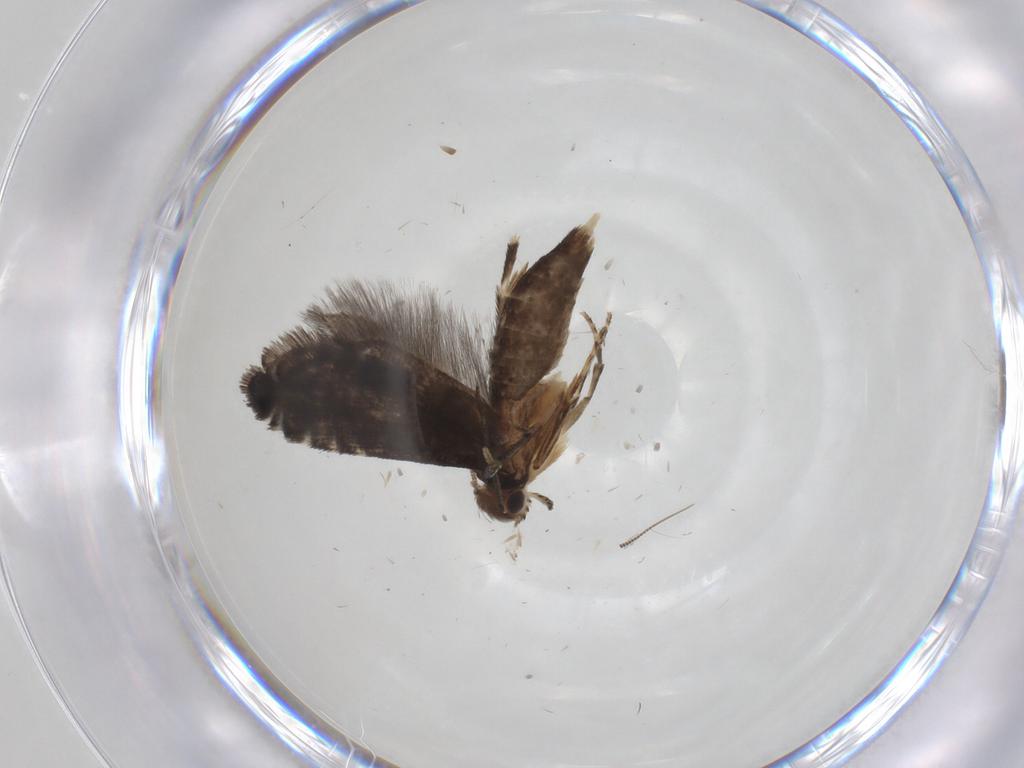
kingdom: Animalia
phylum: Arthropoda
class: Insecta
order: Lepidoptera
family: Glyphipterigidae
